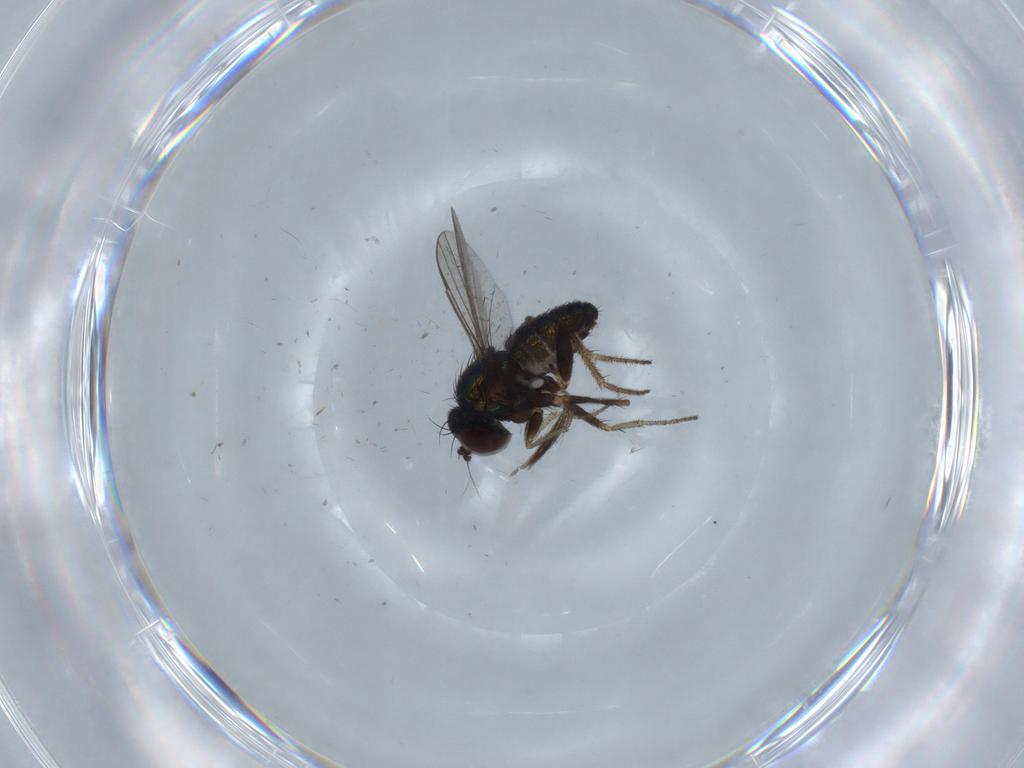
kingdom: Animalia
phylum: Arthropoda
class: Insecta
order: Diptera
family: Ceratopogonidae
